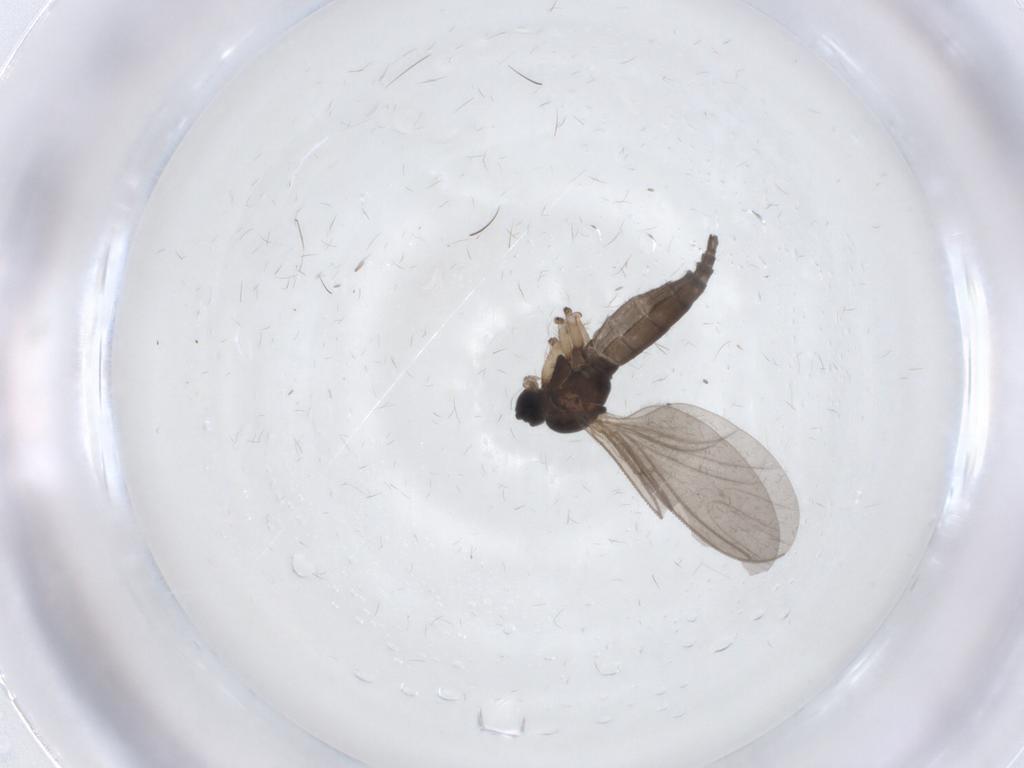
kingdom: Animalia
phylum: Arthropoda
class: Insecta
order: Diptera
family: Sciaridae
